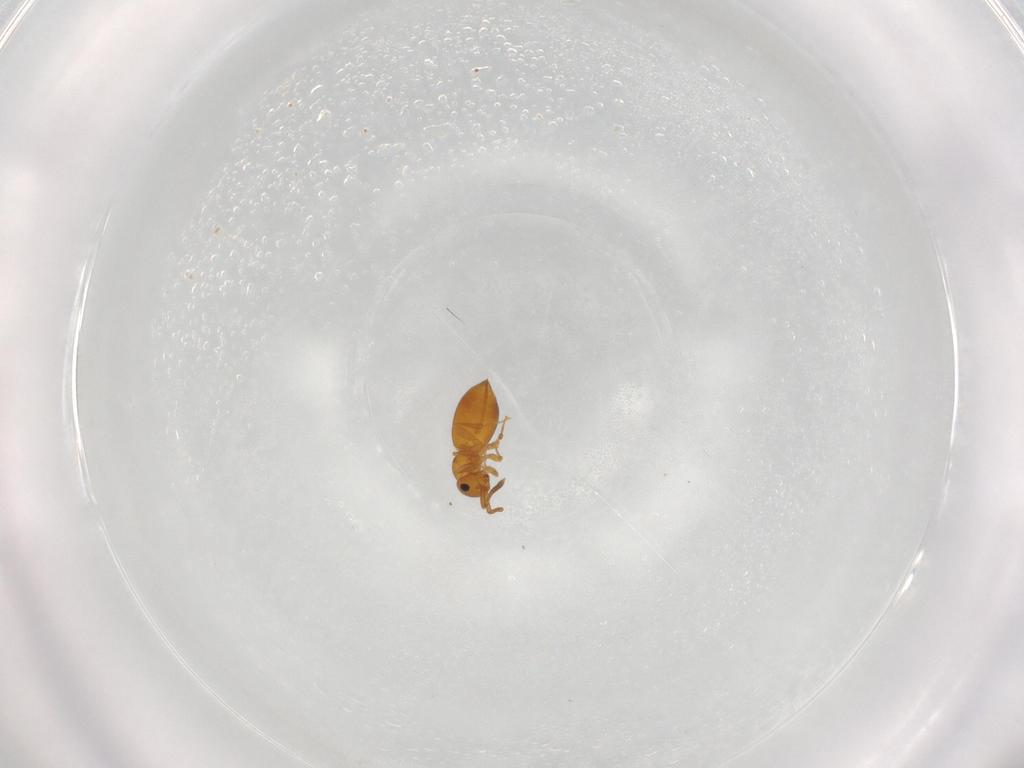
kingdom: Animalia
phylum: Arthropoda
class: Insecta
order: Hymenoptera
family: Megaspilidae
